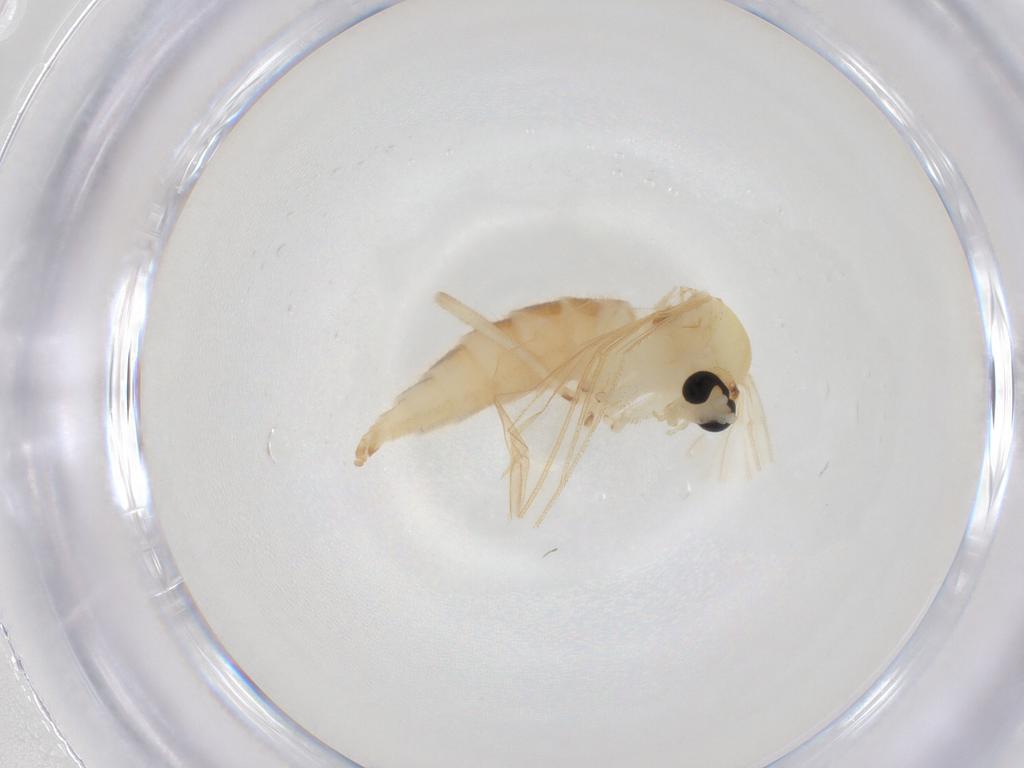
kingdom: Animalia
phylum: Arthropoda
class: Insecta
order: Diptera
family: Sciaridae
